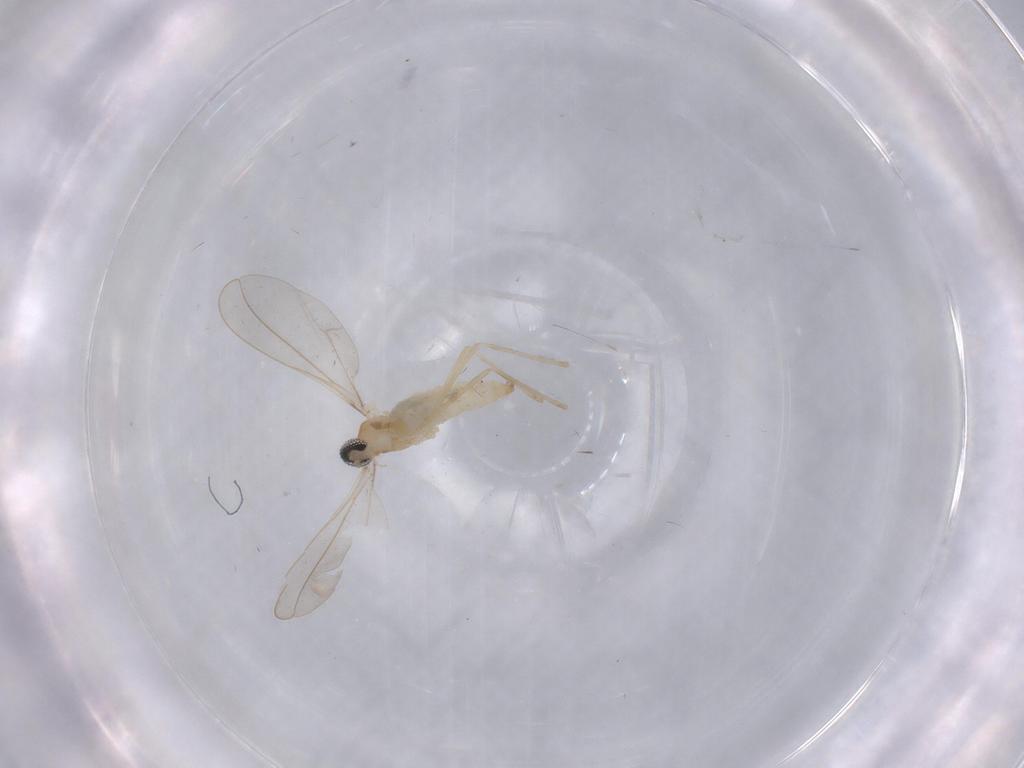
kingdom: Animalia
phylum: Arthropoda
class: Insecta
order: Diptera
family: Cecidomyiidae
